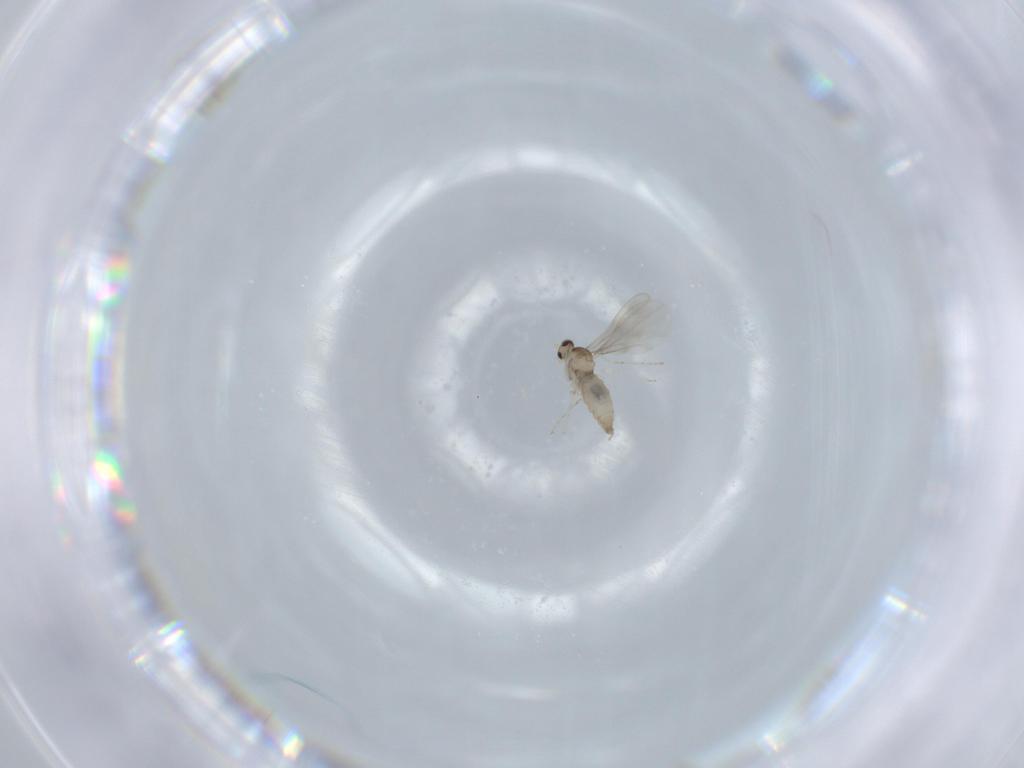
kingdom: Animalia
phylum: Arthropoda
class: Insecta
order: Diptera
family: Cecidomyiidae
